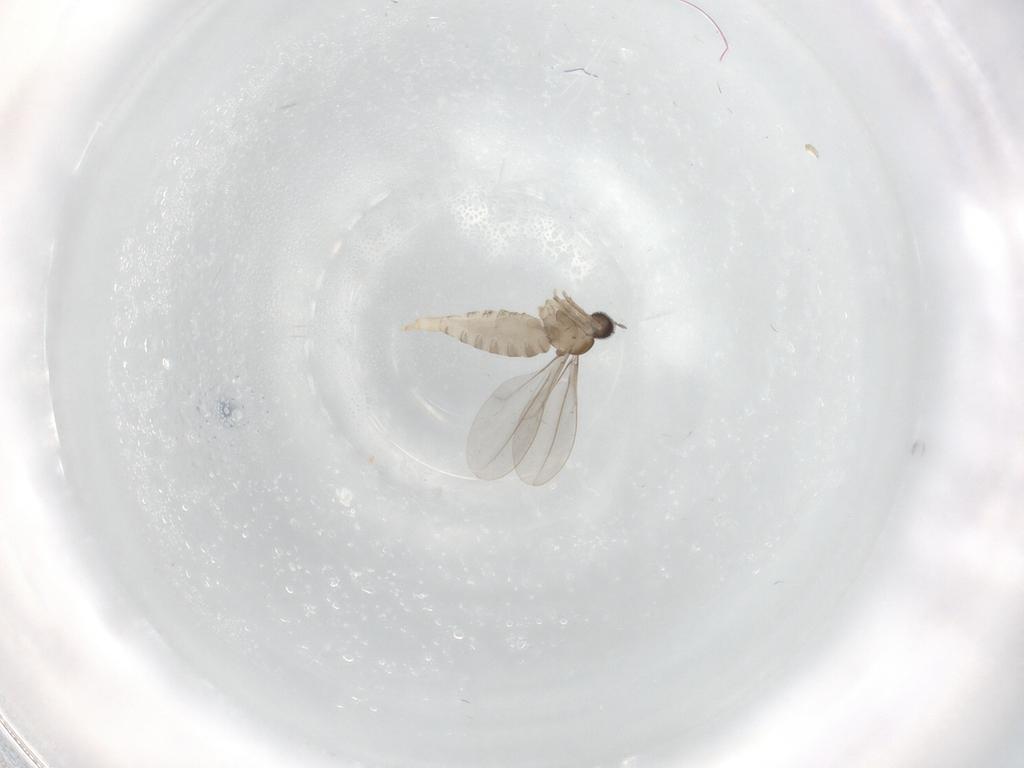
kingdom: Animalia
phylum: Arthropoda
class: Insecta
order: Diptera
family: Cecidomyiidae
